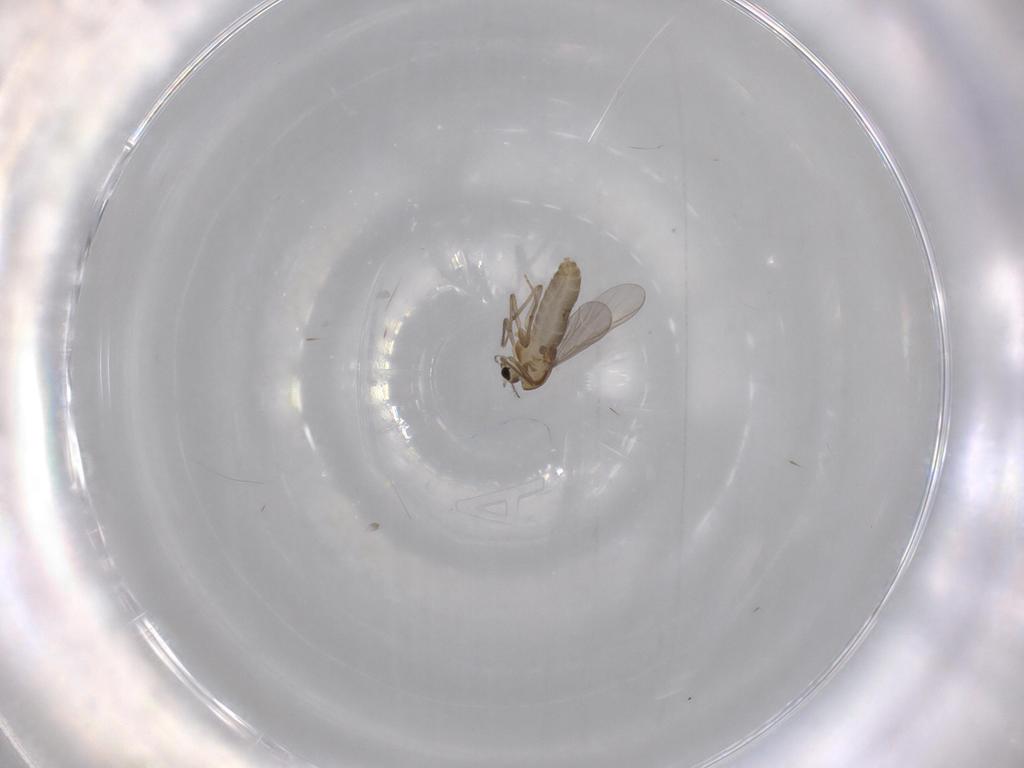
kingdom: Animalia
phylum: Arthropoda
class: Insecta
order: Diptera
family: Chironomidae
